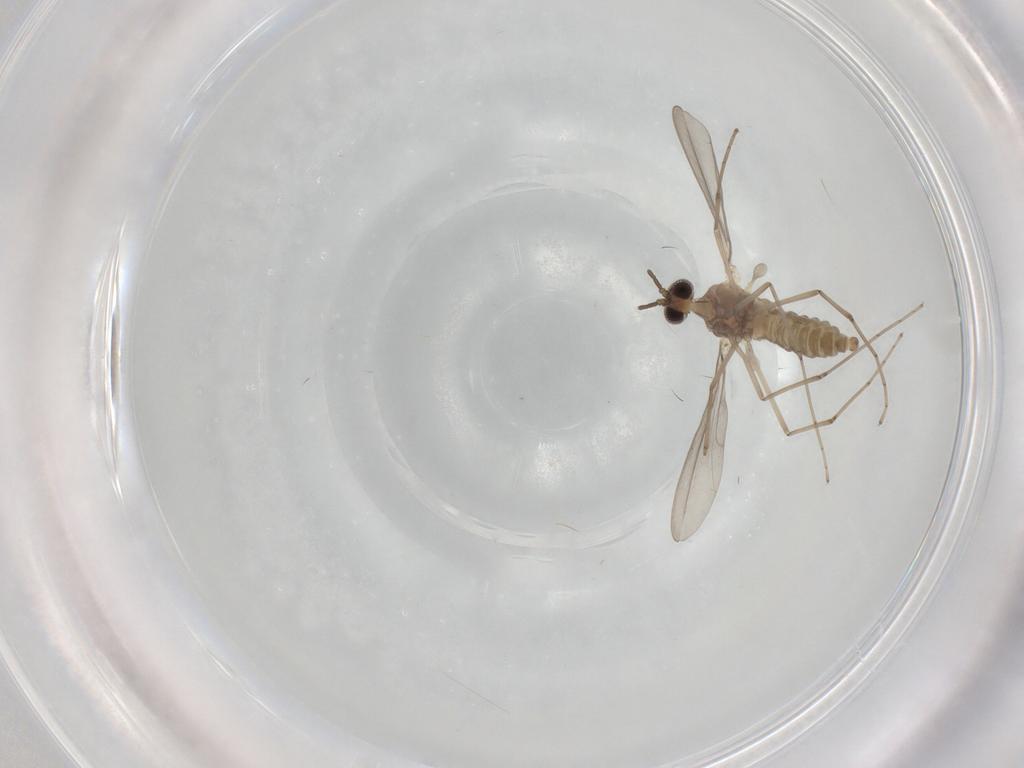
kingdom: Animalia
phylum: Arthropoda
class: Insecta
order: Diptera
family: Cecidomyiidae
